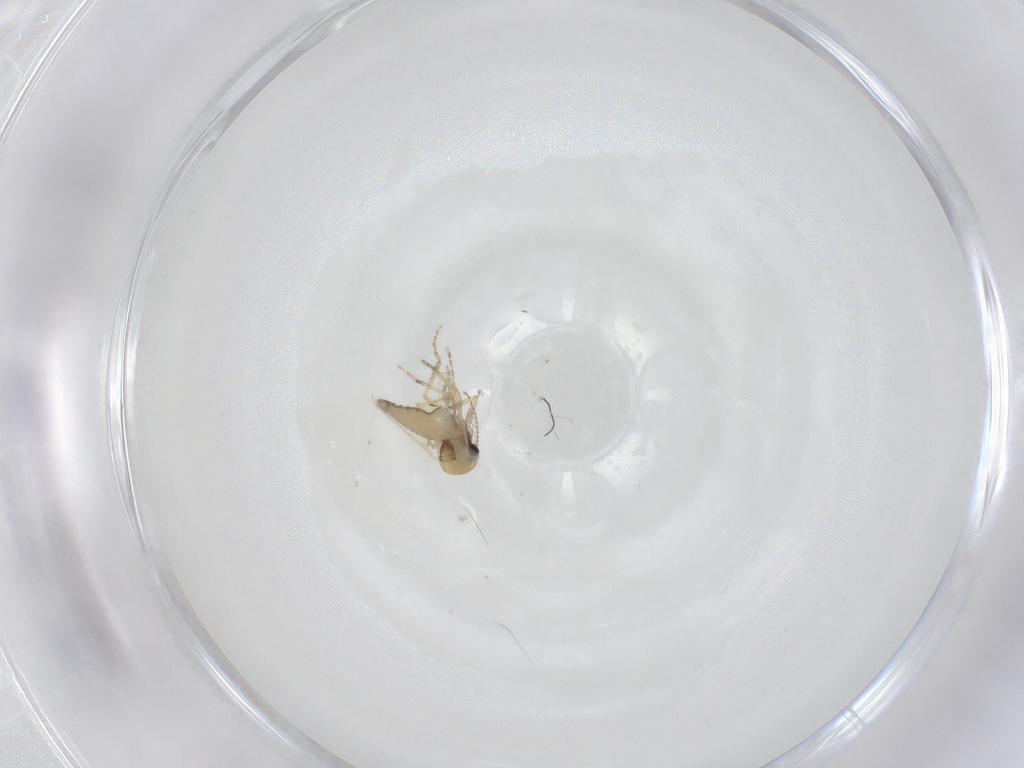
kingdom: Animalia
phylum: Arthropoda
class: Insecta
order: Diptera
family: Ceratopogonidae
